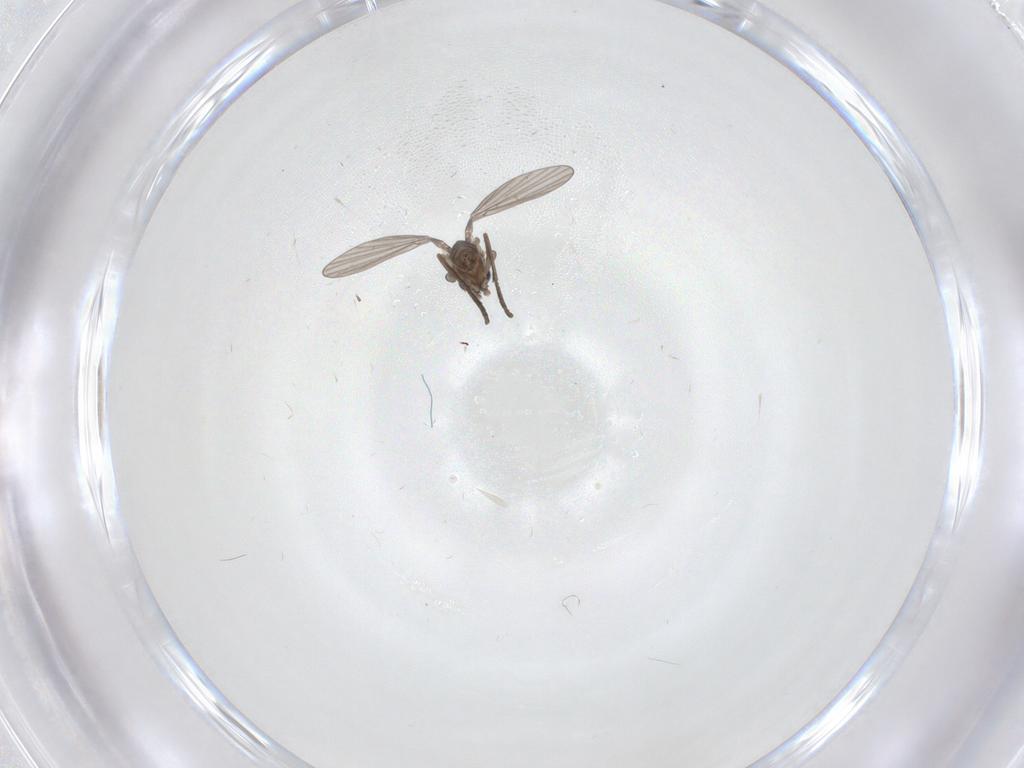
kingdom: Animalia
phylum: Arthropoda
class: Insecta
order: Diptera
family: Psychodidae
